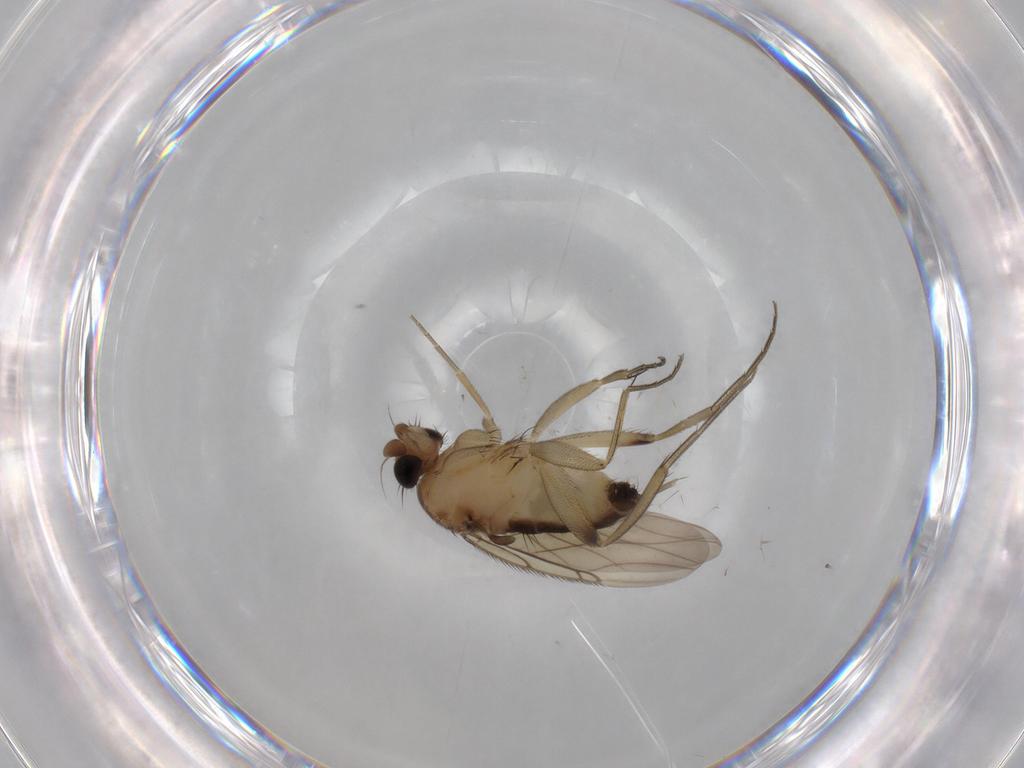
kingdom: Animalia
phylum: Arthropoda
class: Insecta
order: Diptera
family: Phoridae
